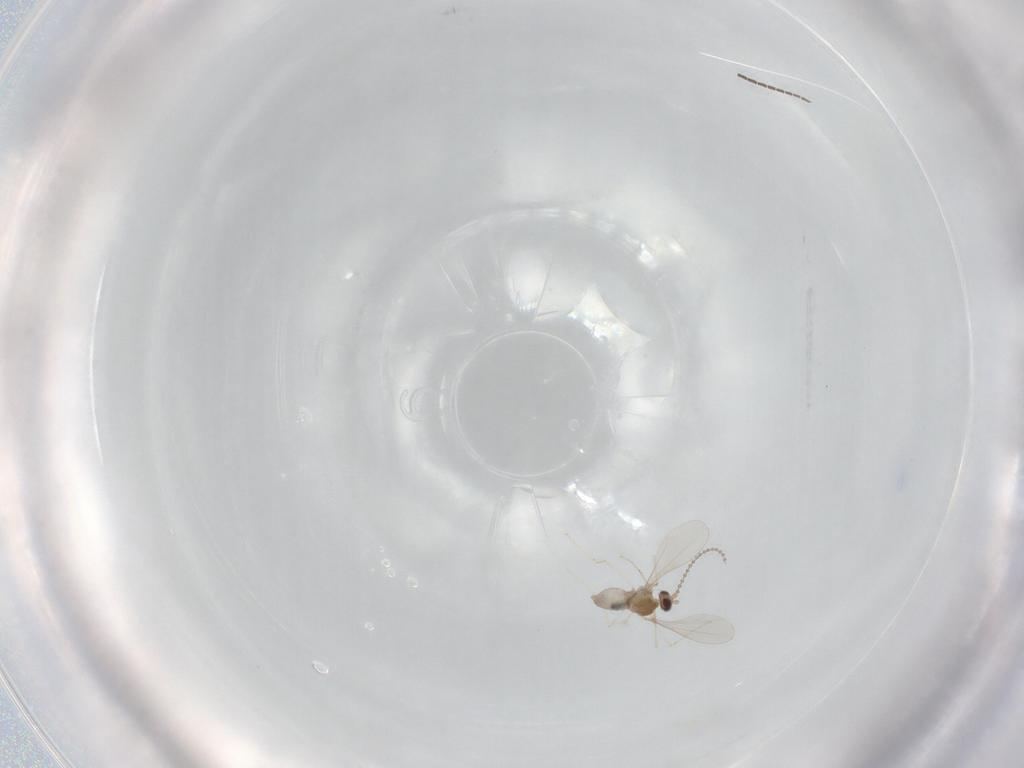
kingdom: Animalia
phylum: Arthropoda
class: Insecta
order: Diptera
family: Sciaridae
